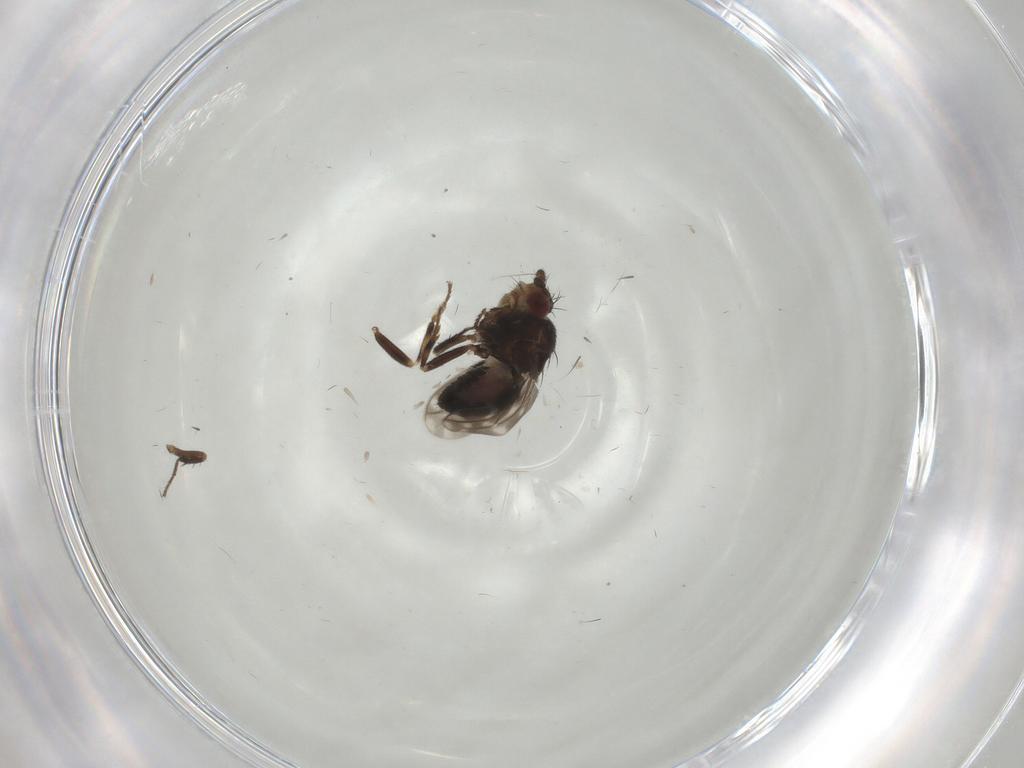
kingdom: Animalia
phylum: Arthropoda
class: Insecta
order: Diptera
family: Sphaeroceridae
